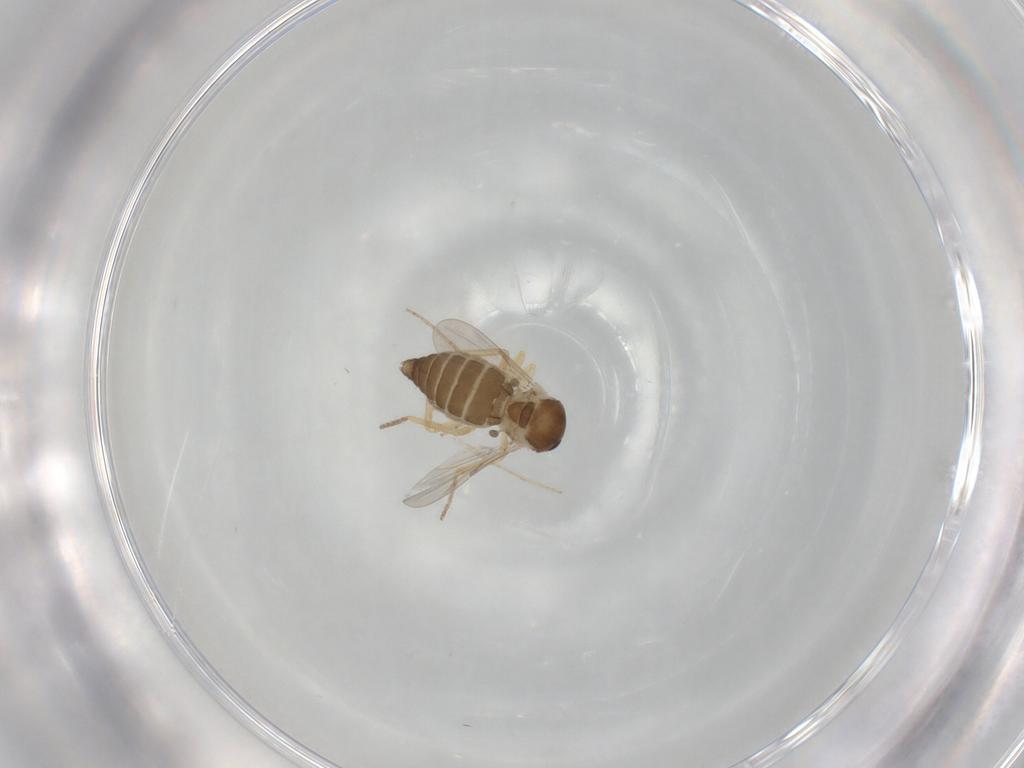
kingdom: Animalia
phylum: Arthropoda
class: Insecta
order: Diptera
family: Ceratopogonidae
